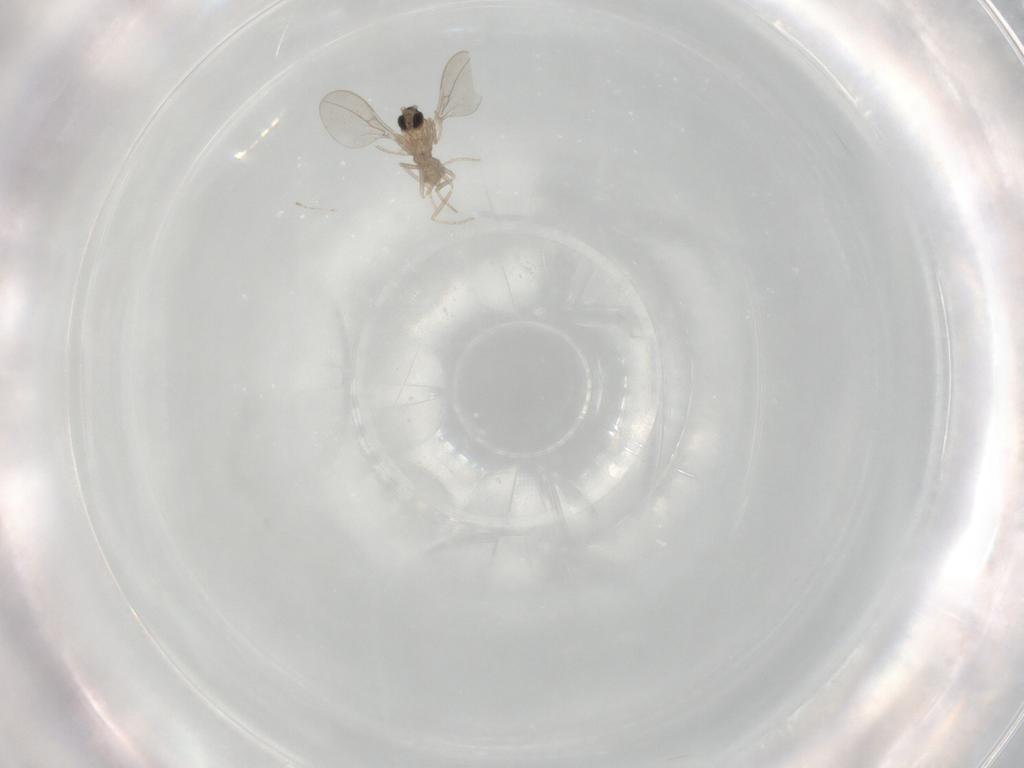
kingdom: Animalia
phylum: Arthropoda
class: Insecta
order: Diptera
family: Cecidomyiidae
